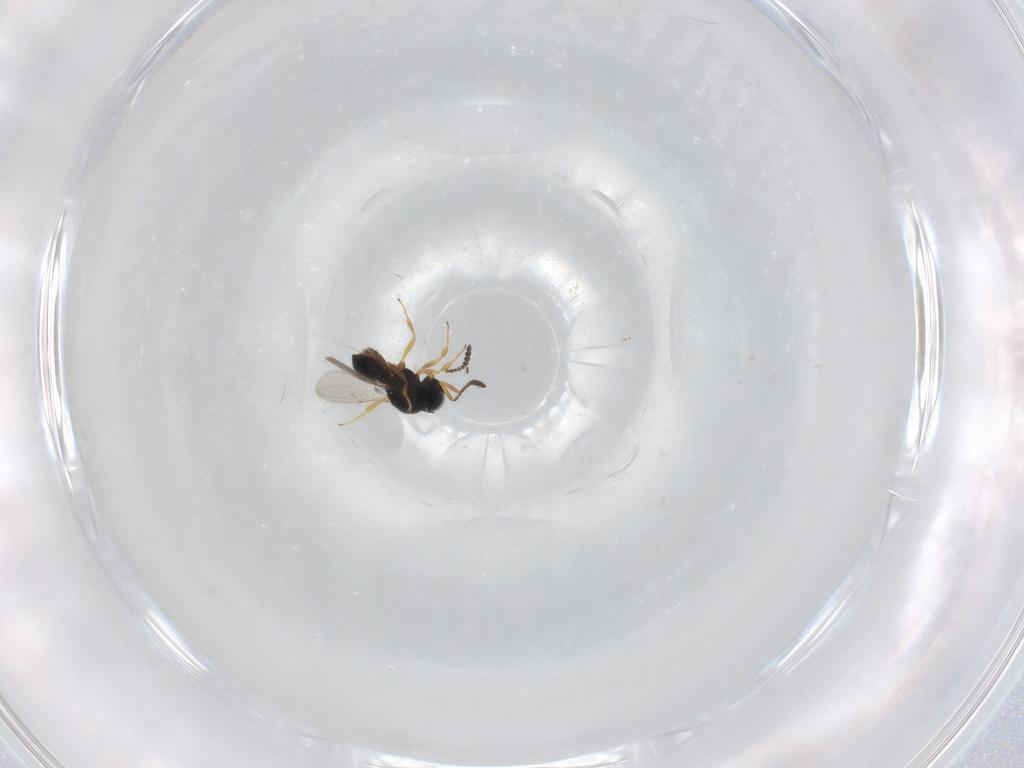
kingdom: Animalia
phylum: Arthropoda
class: Insecta
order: Hymenoptera
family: Scelionidae
